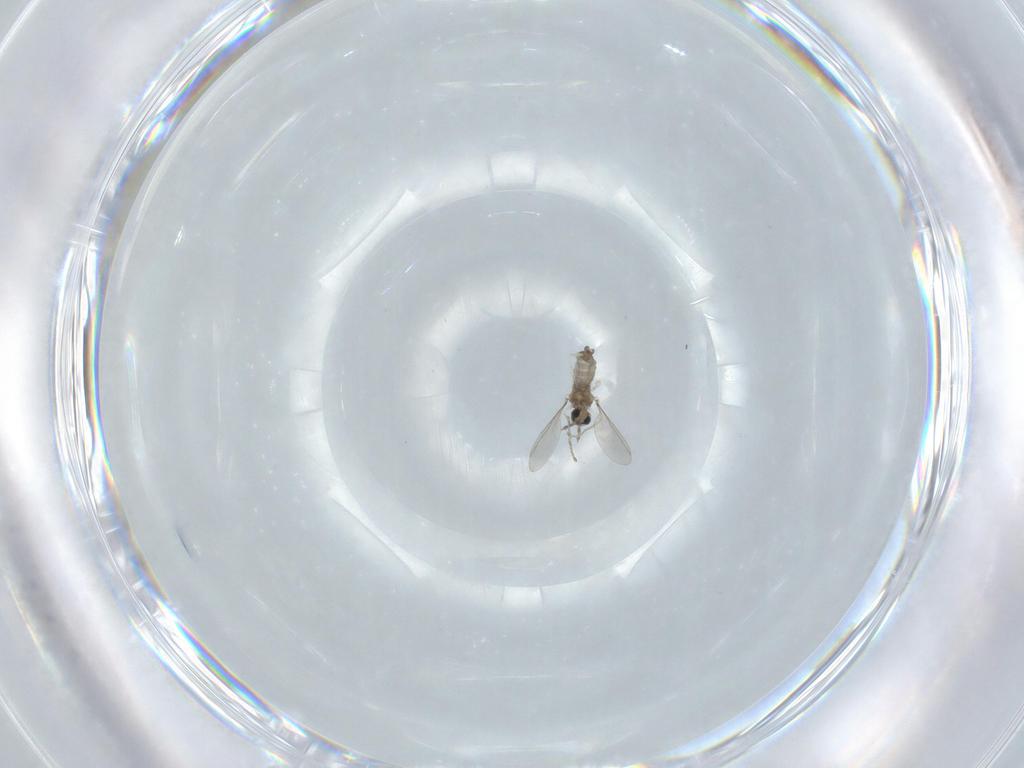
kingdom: Animalia
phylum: Arthropoda
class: Insecta
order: Diptera
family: Cecidomyiidae
